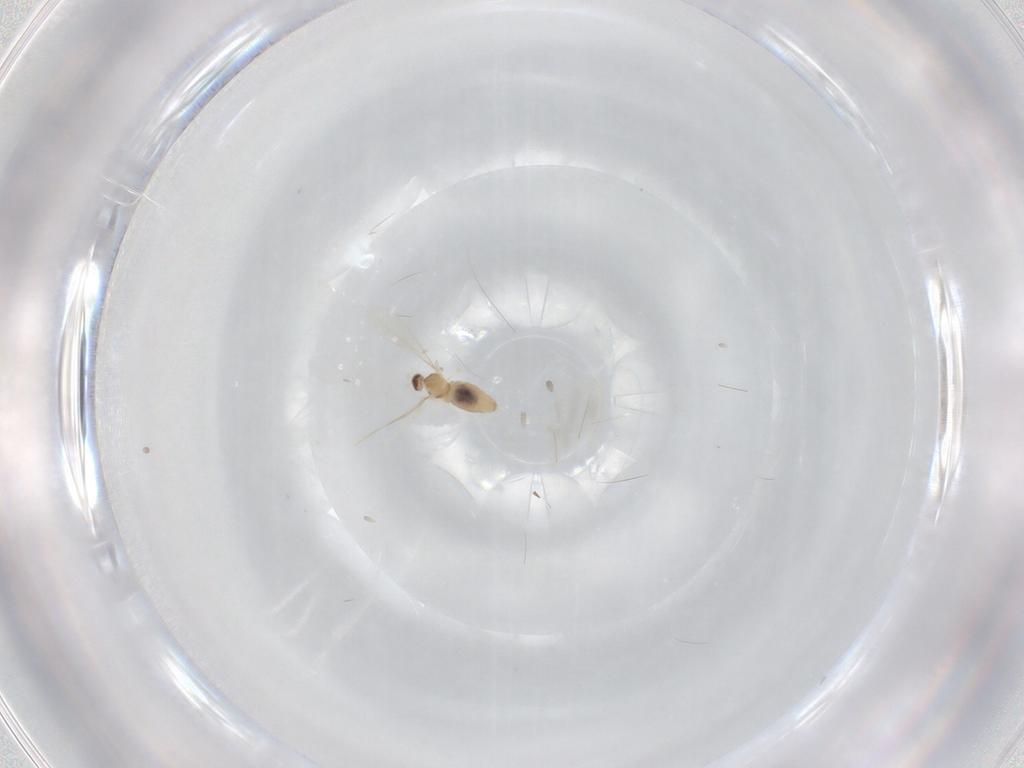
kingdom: Animalia
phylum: Arthropoda
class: Insecta
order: Diptera
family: Cecidomyiidae
